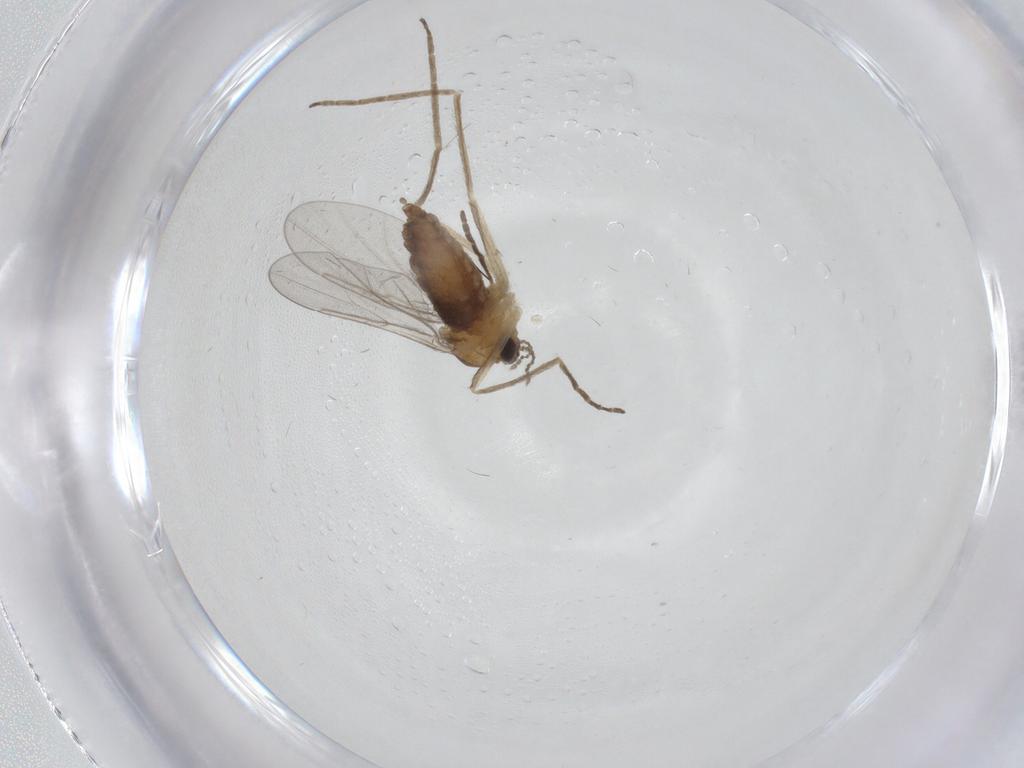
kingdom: Animalia
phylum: Arthropoda
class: Insecta
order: Diptera
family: Cecidomyiidae
